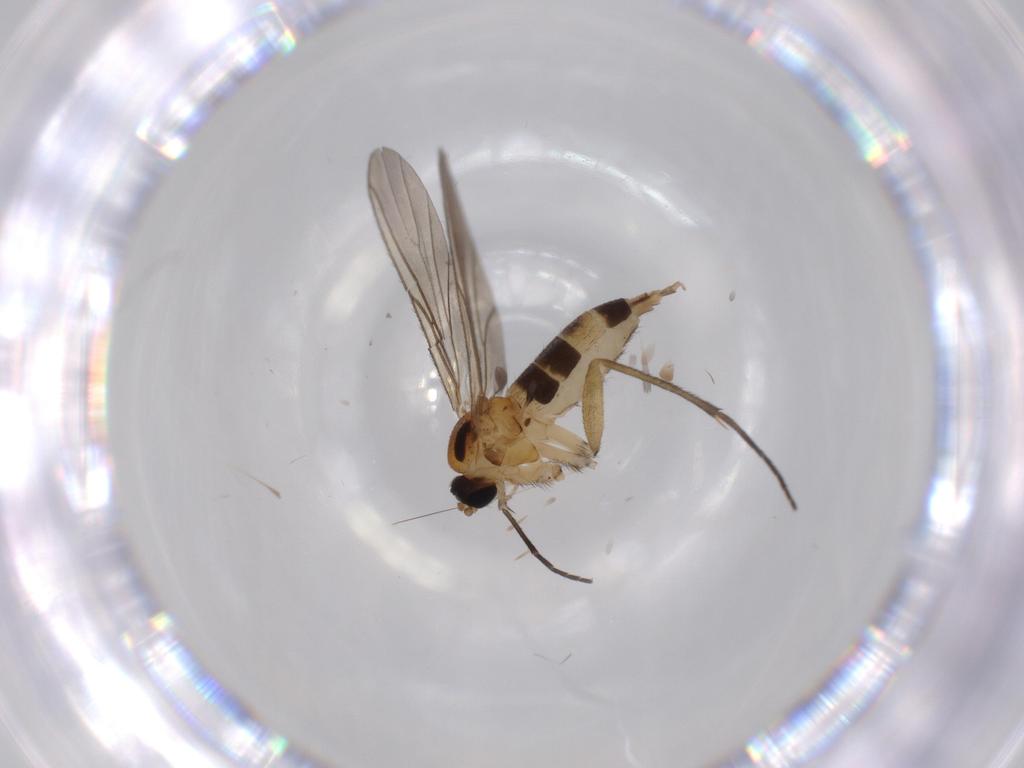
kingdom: Animalia
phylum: Arthropoda
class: Insecta
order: Diptera
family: Sciaridae
